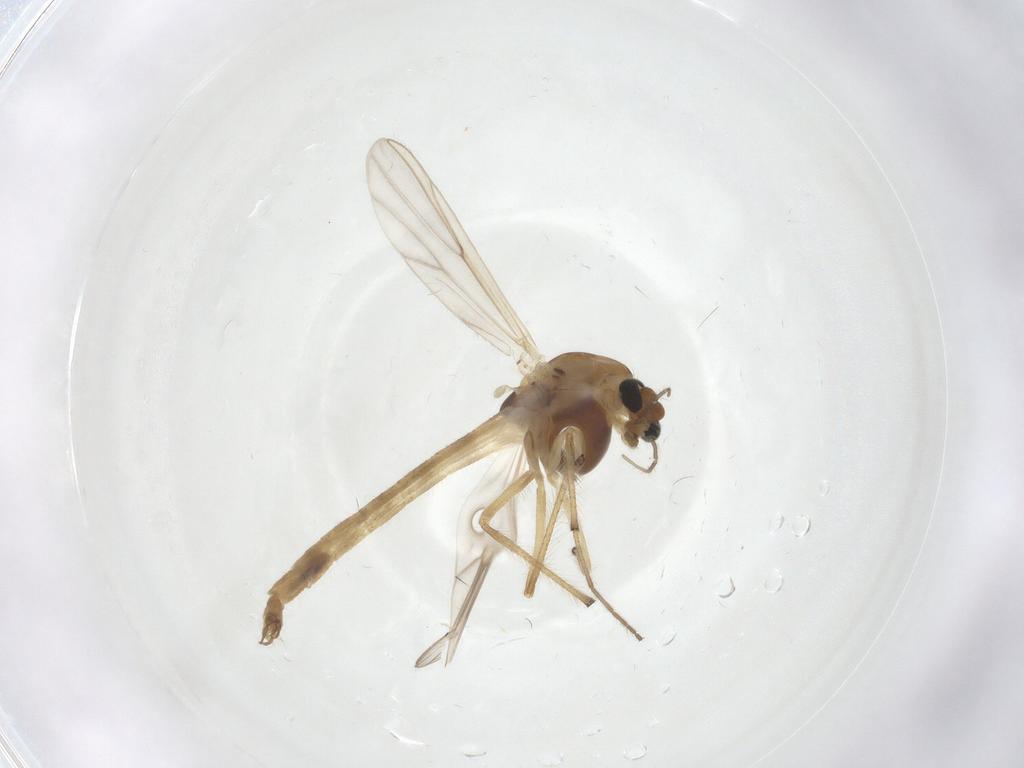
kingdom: Animalia
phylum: Arthropoda
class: Insecta
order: Diptera
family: Chironomidae
